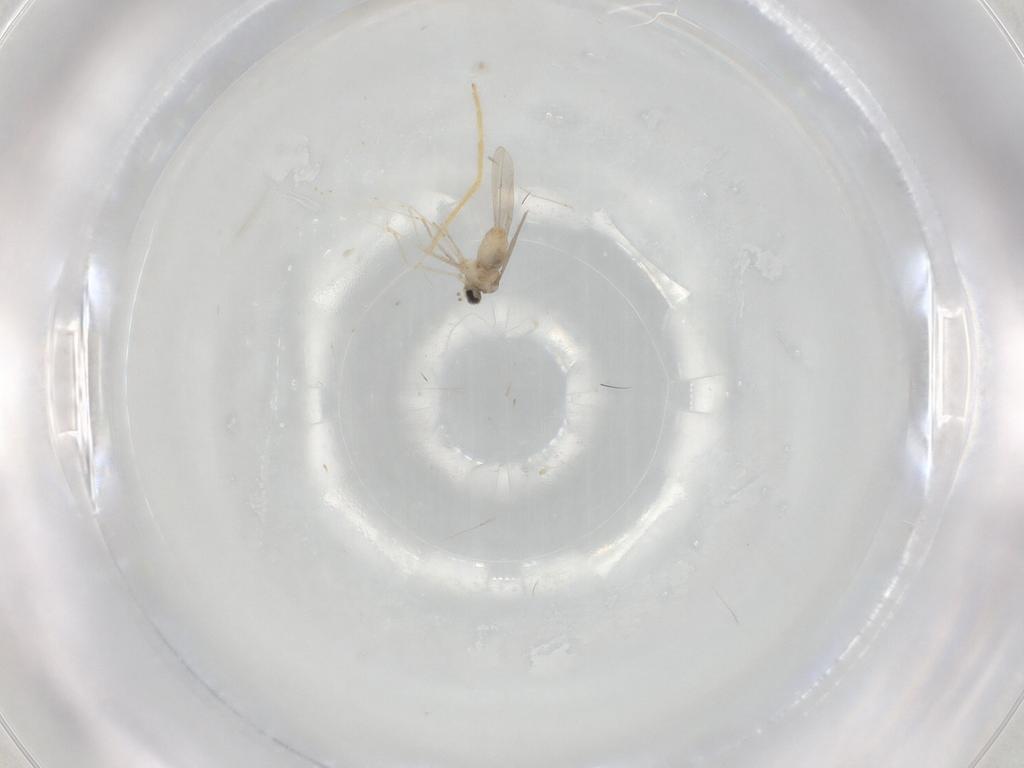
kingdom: Animalia
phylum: Arthropoda
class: Insecta
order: Diptera
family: Cecidomyiidae
